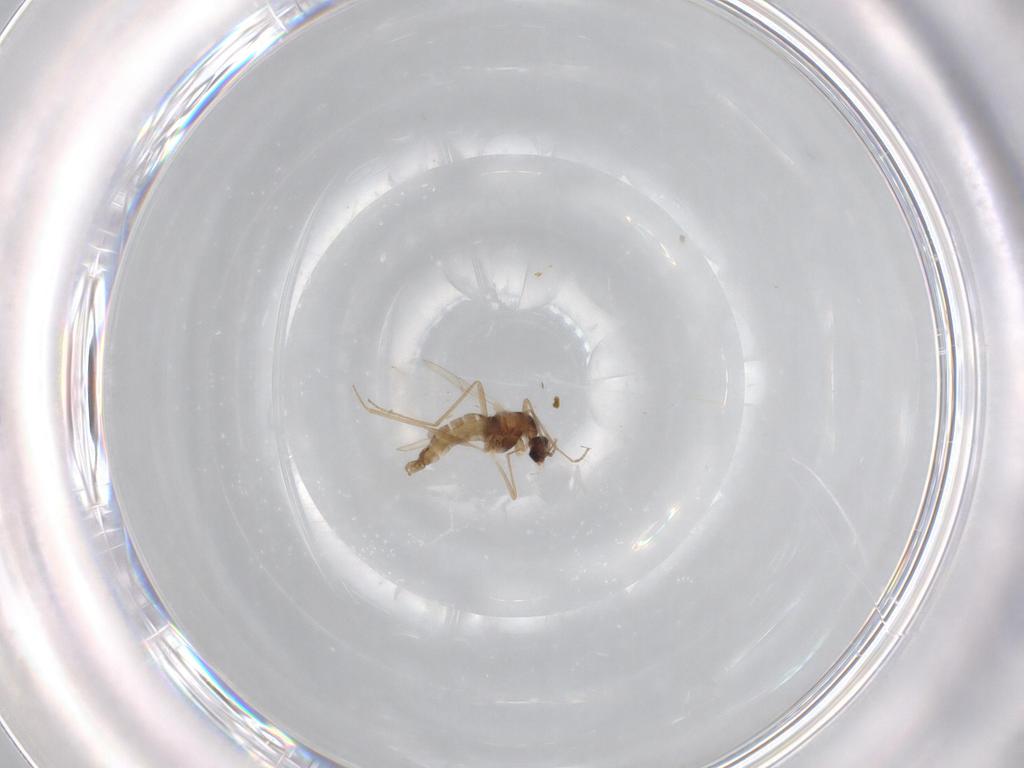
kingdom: Animalia
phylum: Arthropoda
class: Insecta
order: Diptera
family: Cecidomyiidae
